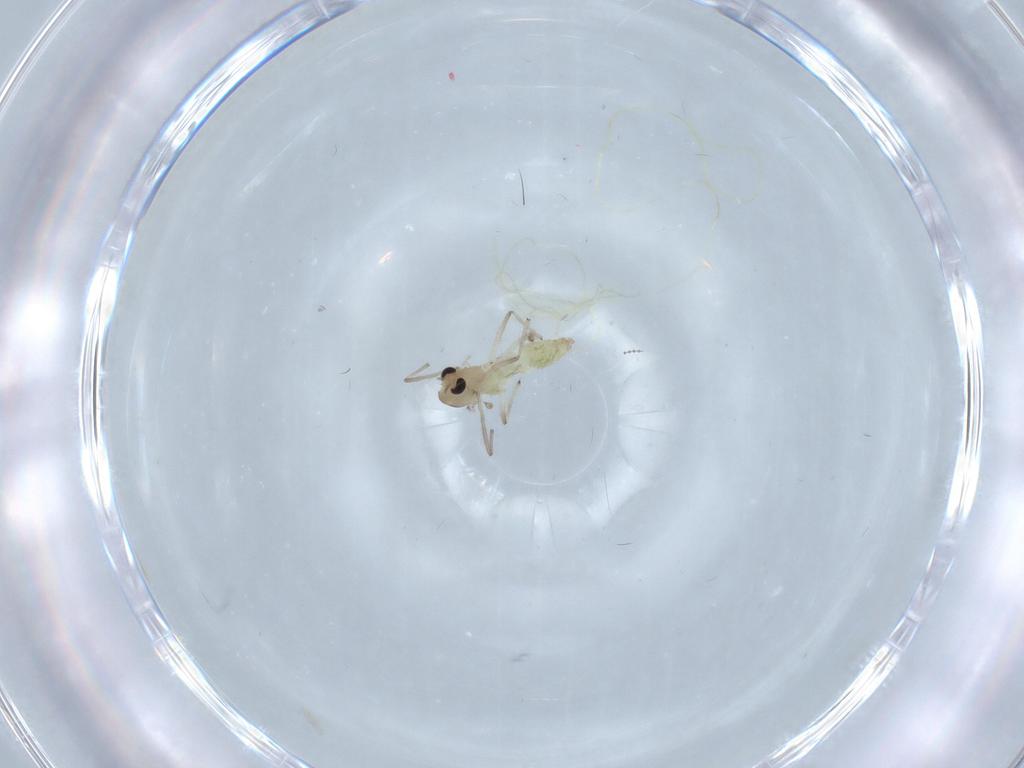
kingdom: Animalia
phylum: Arthropoda
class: Insecta
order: Diptera
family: Chironomidae
